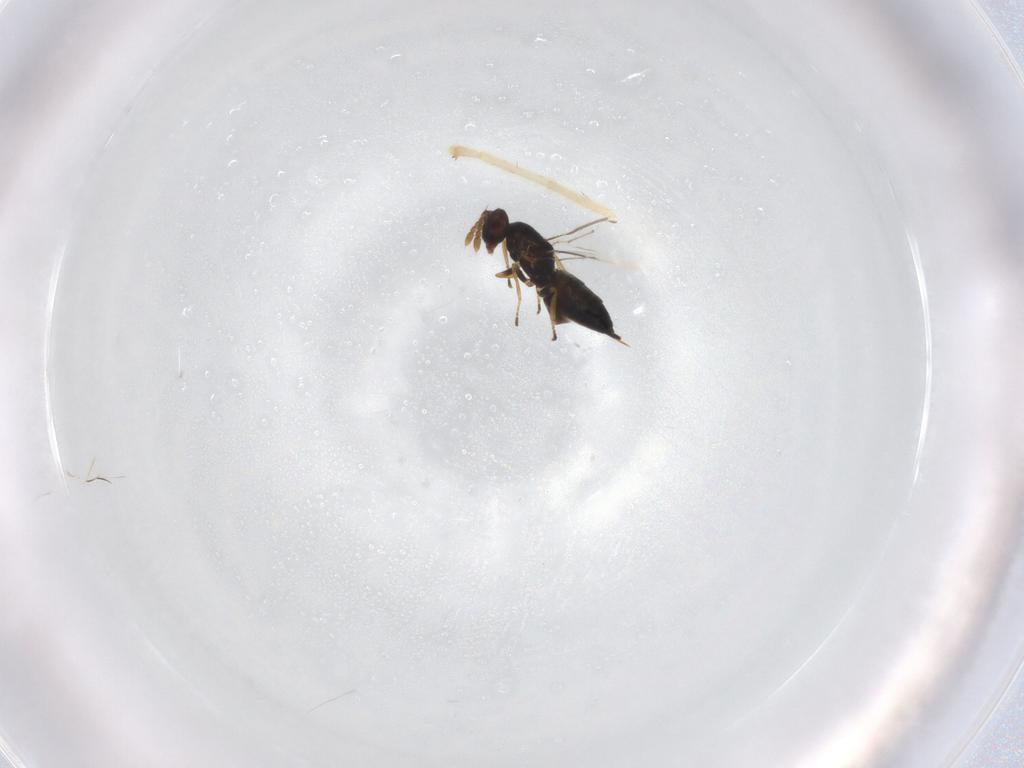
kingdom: Animalia
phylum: Arthropoda
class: Insecta
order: Hymenoptera
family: Eulophidae
